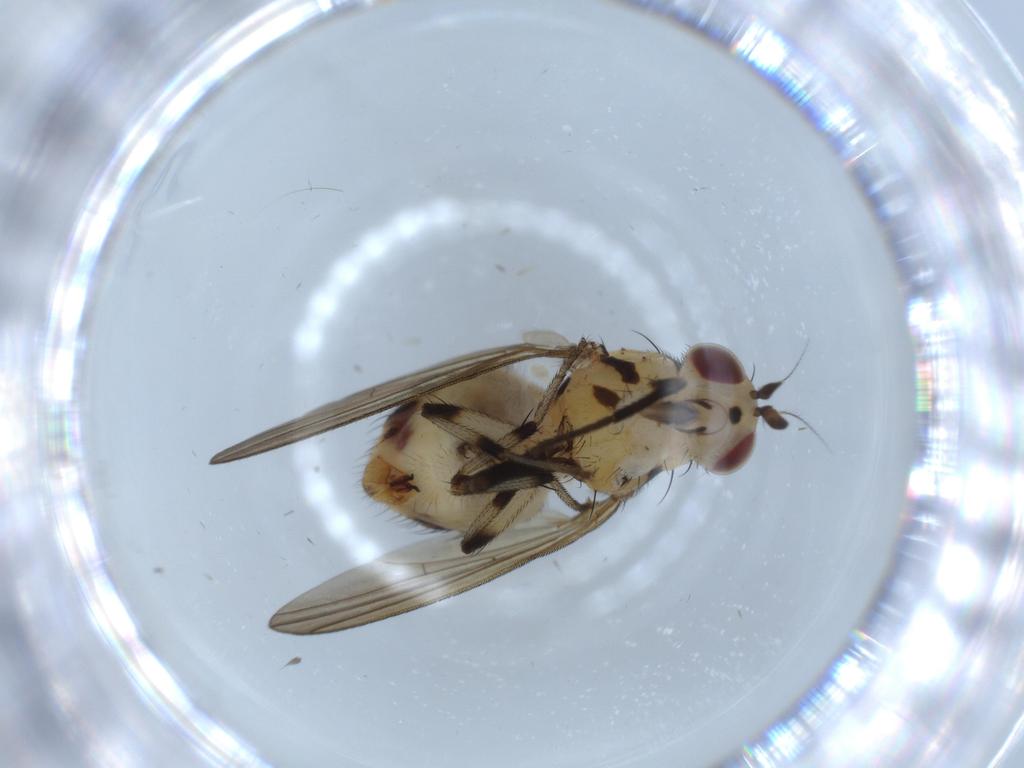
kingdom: Animalia
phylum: Arthropoda
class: Insecta
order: Diptera
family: Lauxaniidae
